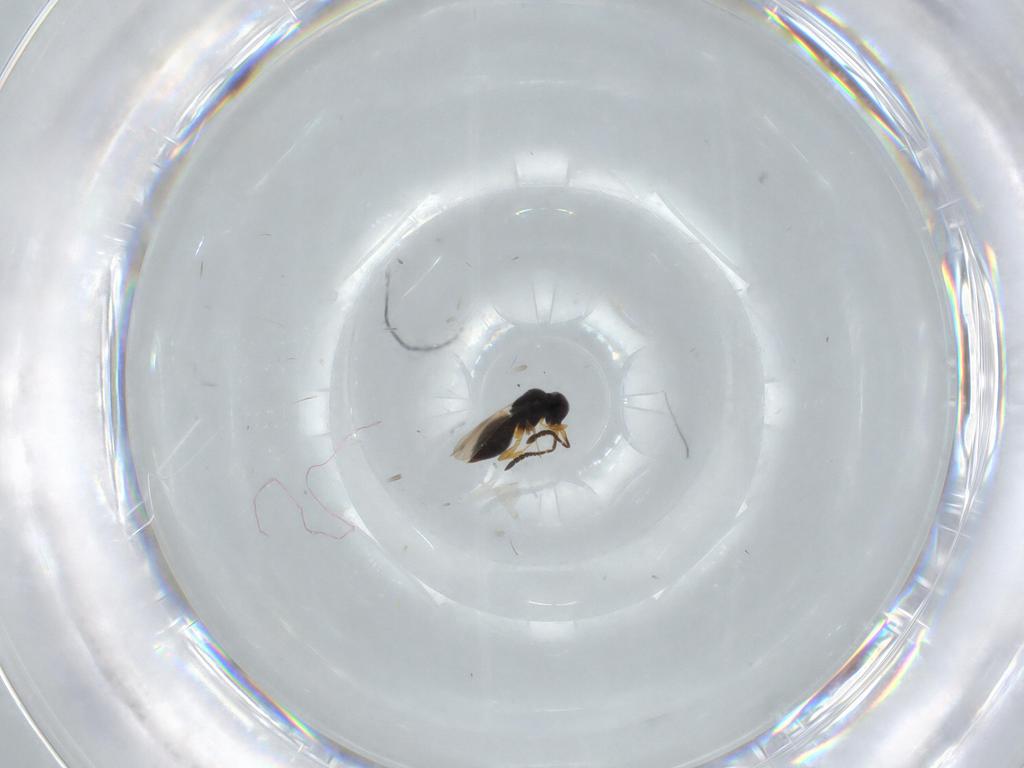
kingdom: Animalia
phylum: Arthropoda
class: Insecta
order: Hymenoptera
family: Ceraphronidae
